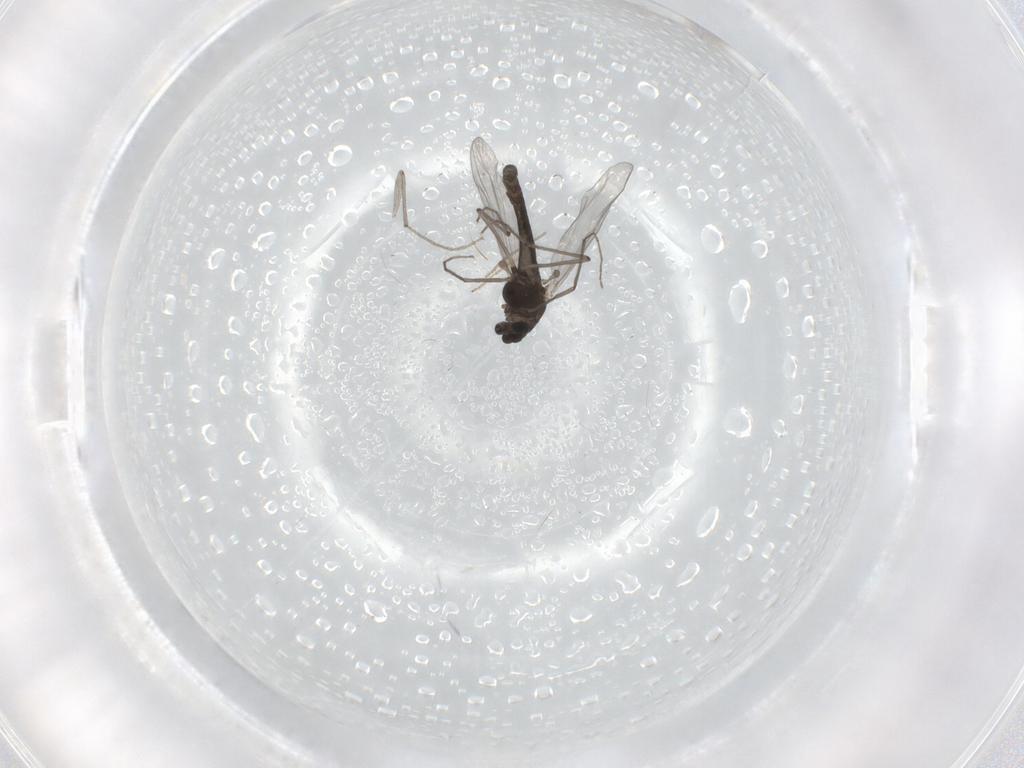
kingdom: Animalia
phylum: Arthropoda
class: Insecta
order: Diptera
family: Chironomidae
